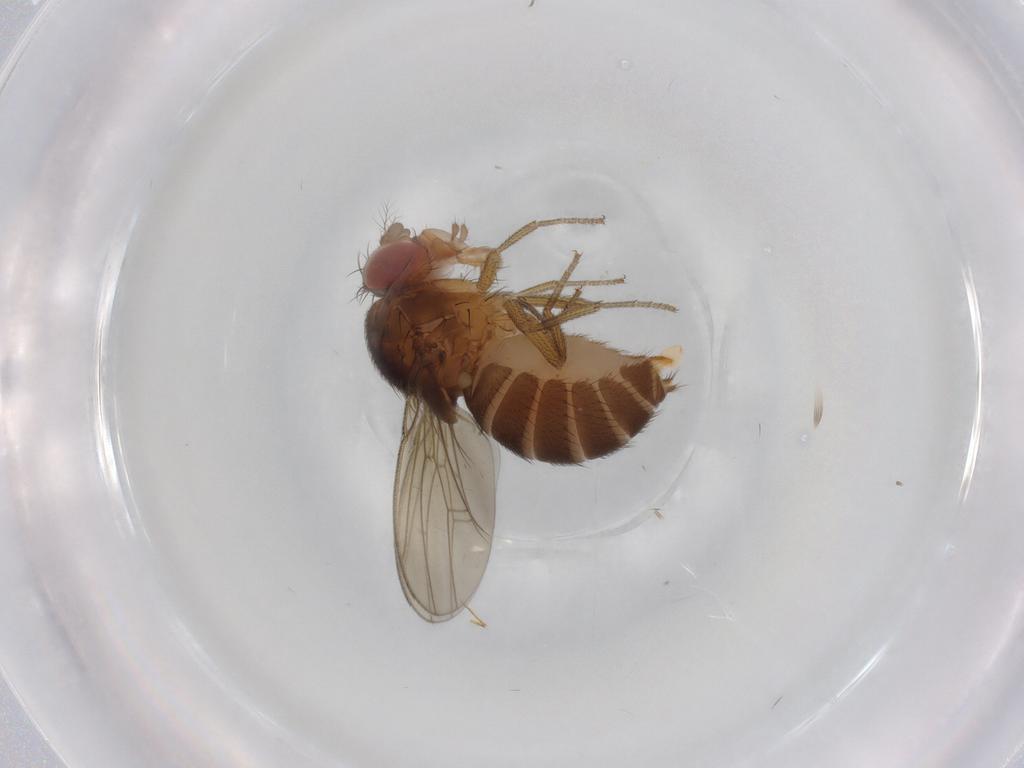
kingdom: Animalia
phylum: Arthropoda
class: Insecta
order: Diptera
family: Drosophilidae
